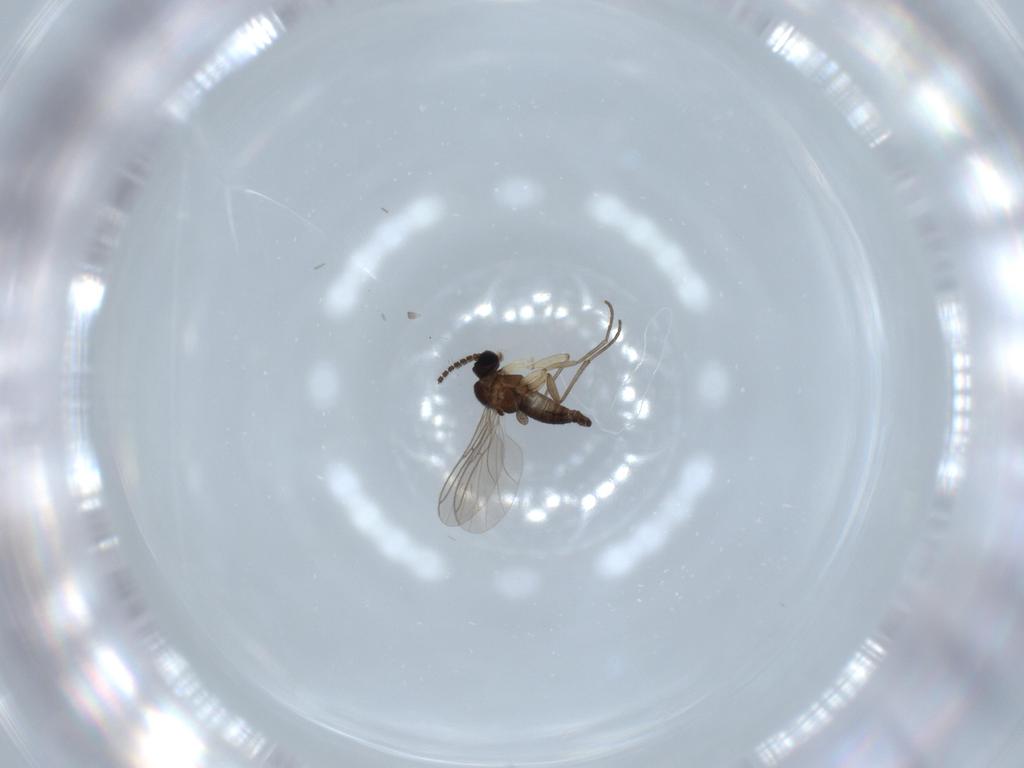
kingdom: Animalia
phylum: Arthropoda
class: Insecta
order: Diptera
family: Sciaridae
